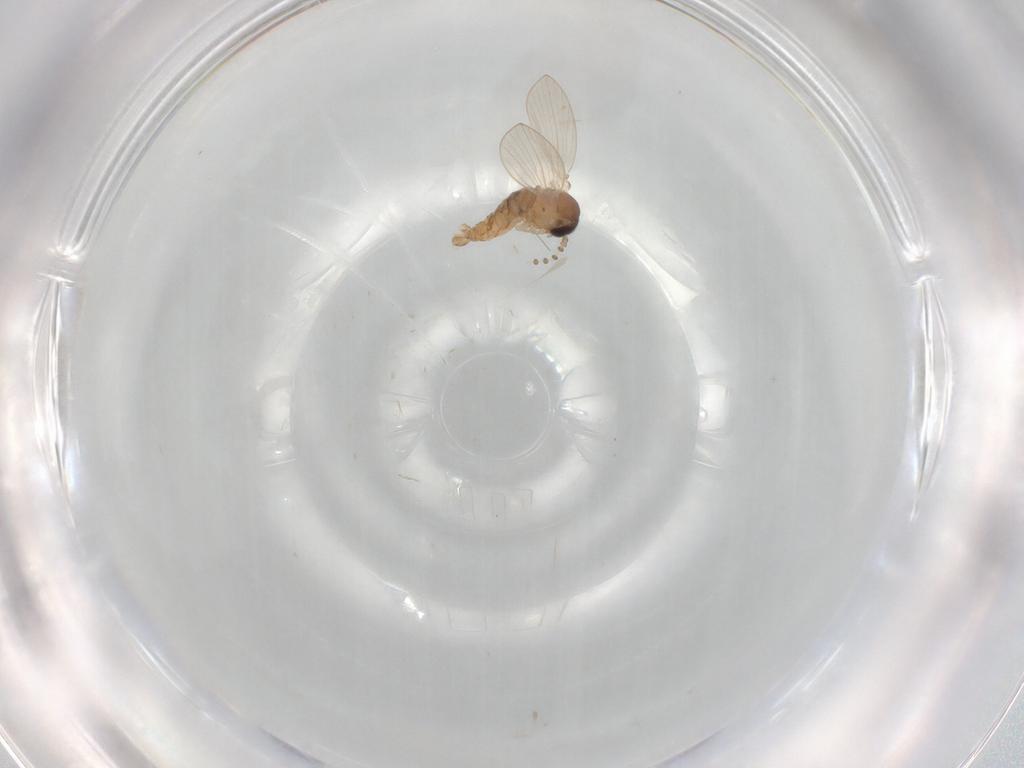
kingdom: Animalia
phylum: Arthropoda
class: Insecta
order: Diptera
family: Psychodidae
